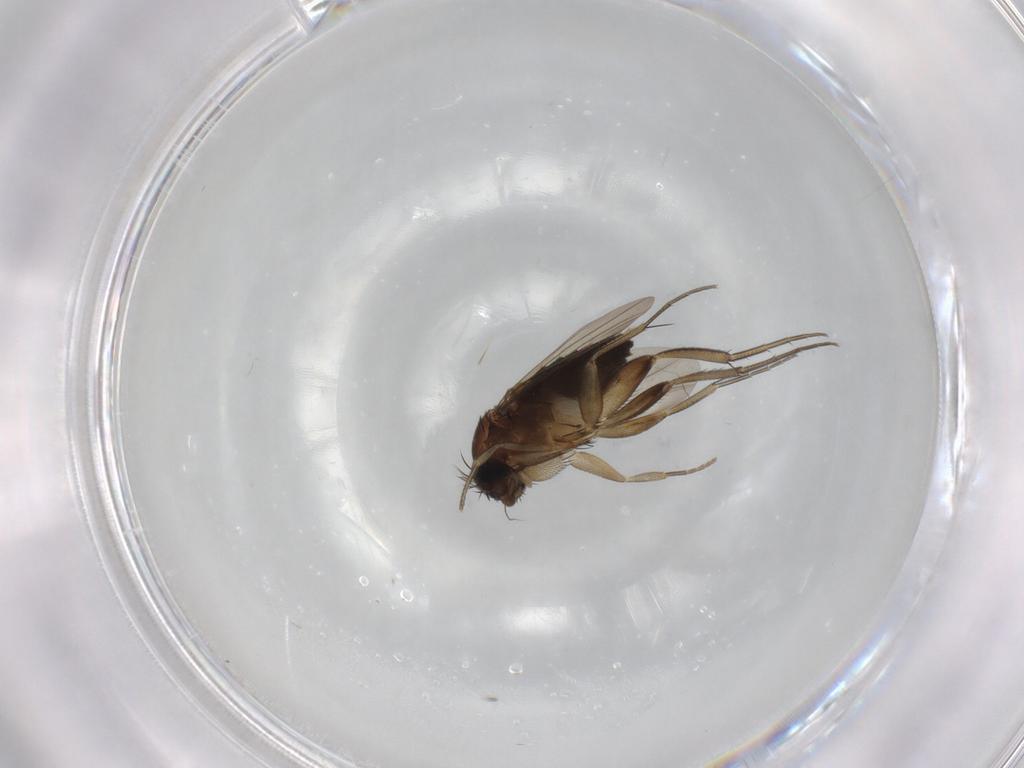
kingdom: Animalia
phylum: Arthropoda
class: Insecta
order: Diptera
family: Phoridae
